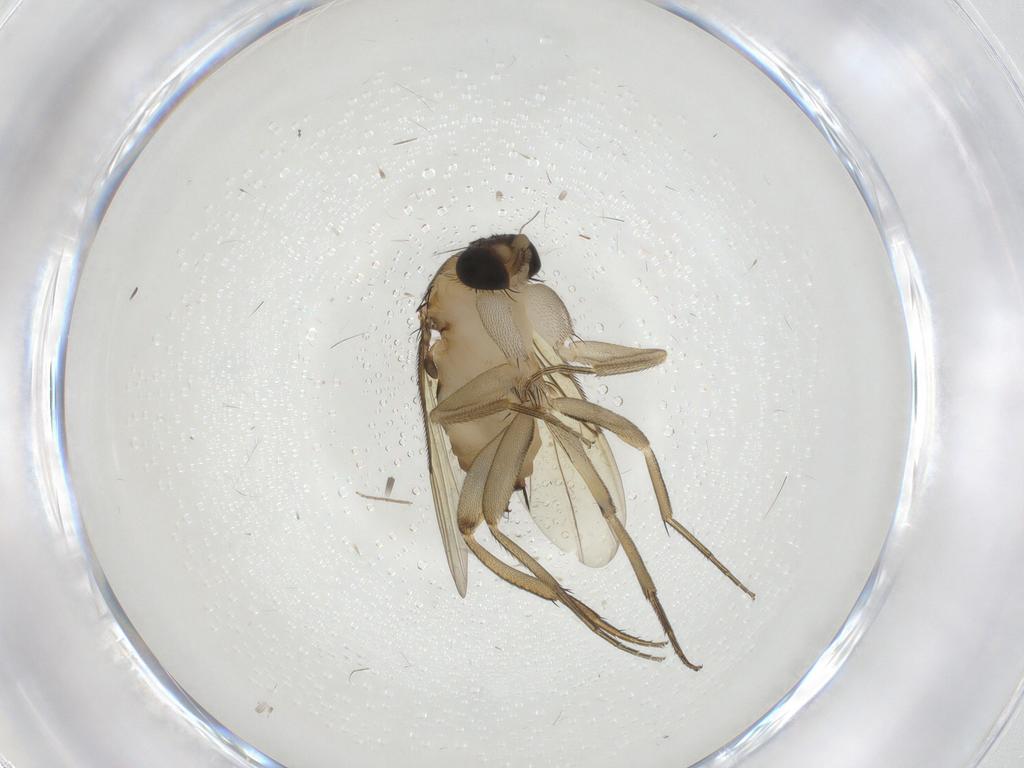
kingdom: Animalia
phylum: Arthropoda
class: Insecta
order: Diptera
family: Phoridae
